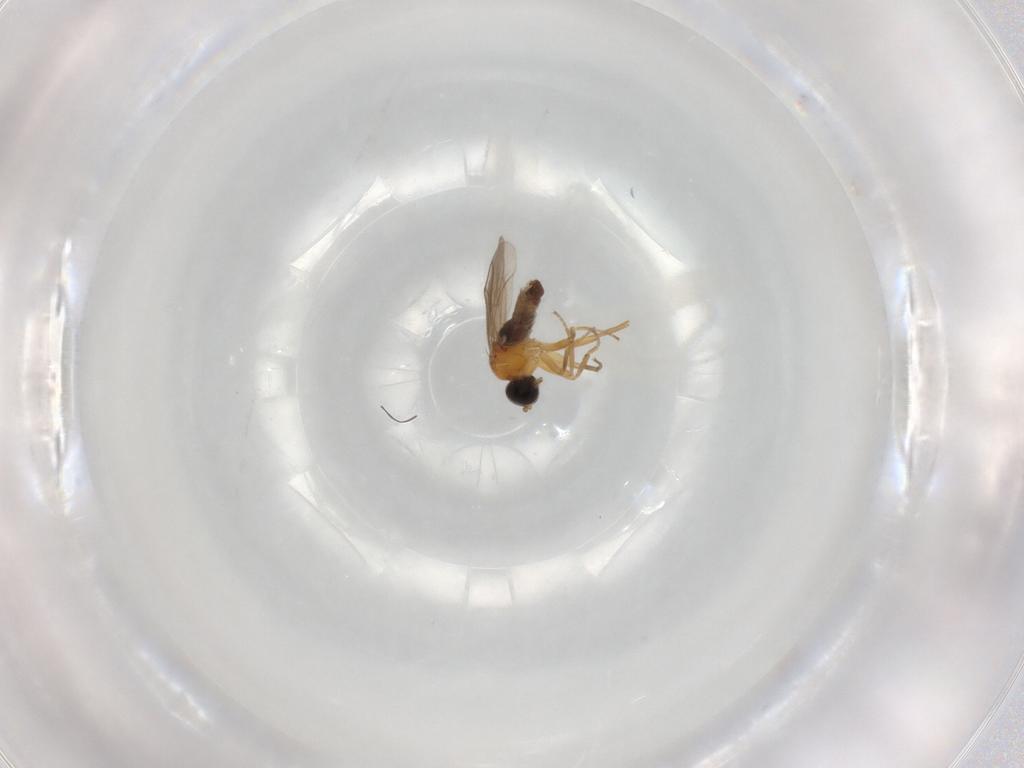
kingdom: Animalia
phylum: Arthropoda
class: Insecta
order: Diptera
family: Hybotidae
